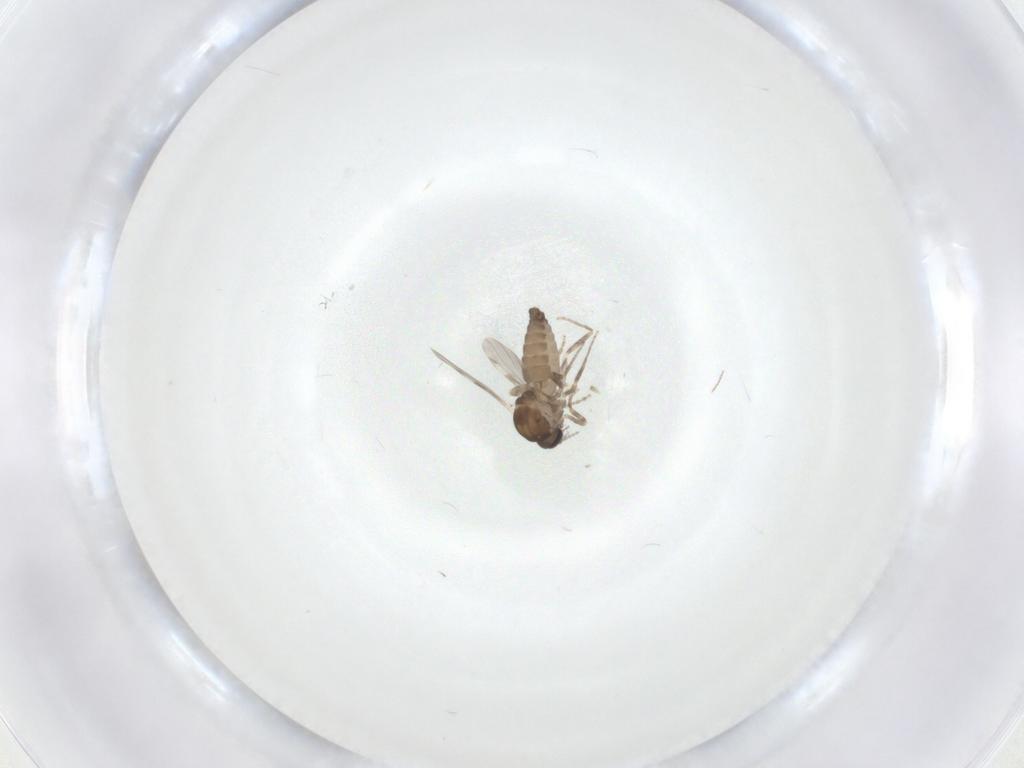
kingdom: Animalia
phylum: Arthropoda
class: Insecta
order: Diptera
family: Ceratopogonidae
